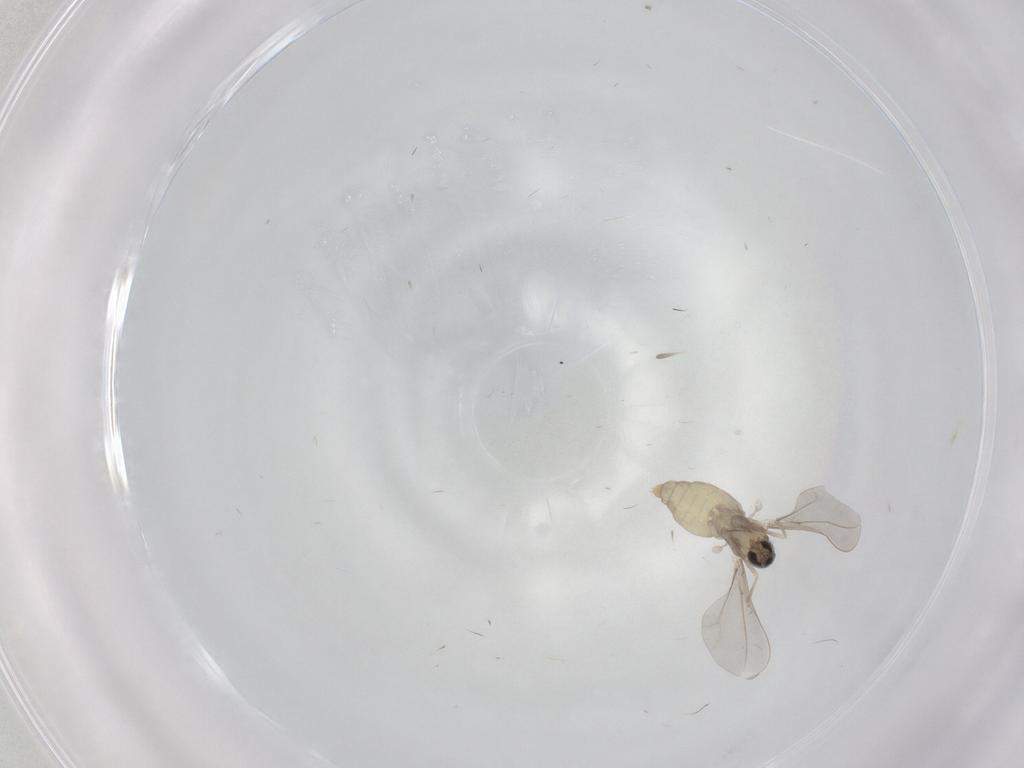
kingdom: Animalia
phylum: Arthropoda
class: Insecta
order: Diptera
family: Cecidomyiidae
